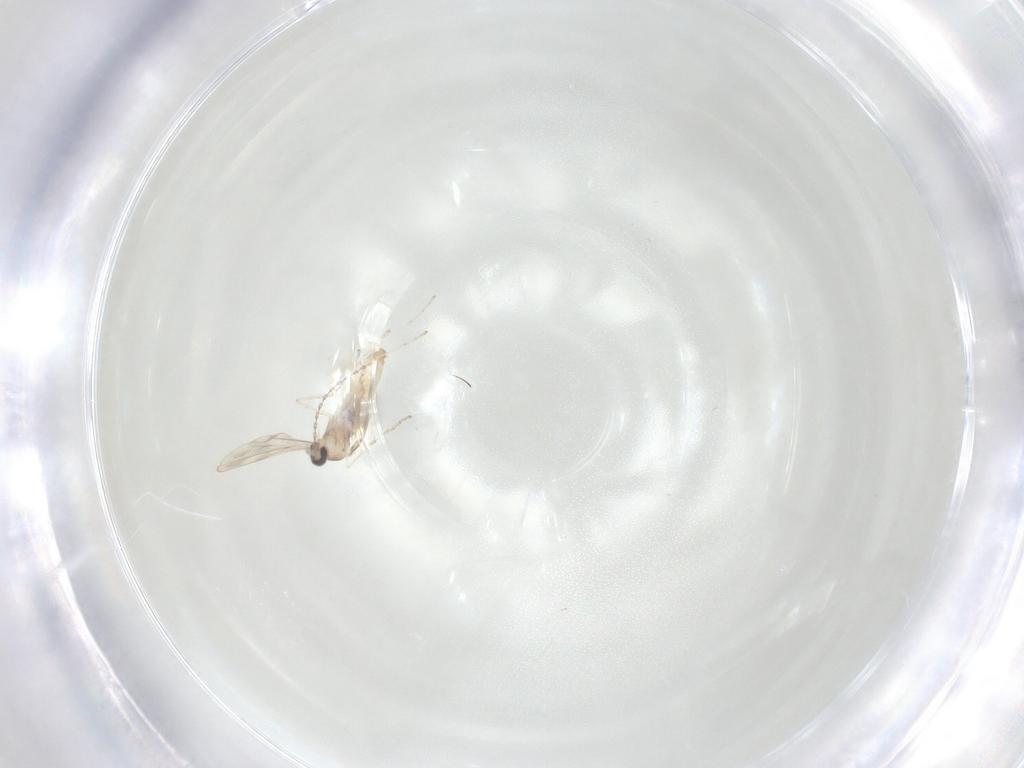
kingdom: Animalia
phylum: Arthropoda
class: Insecta
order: Diptera
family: Cecidomyiidae
